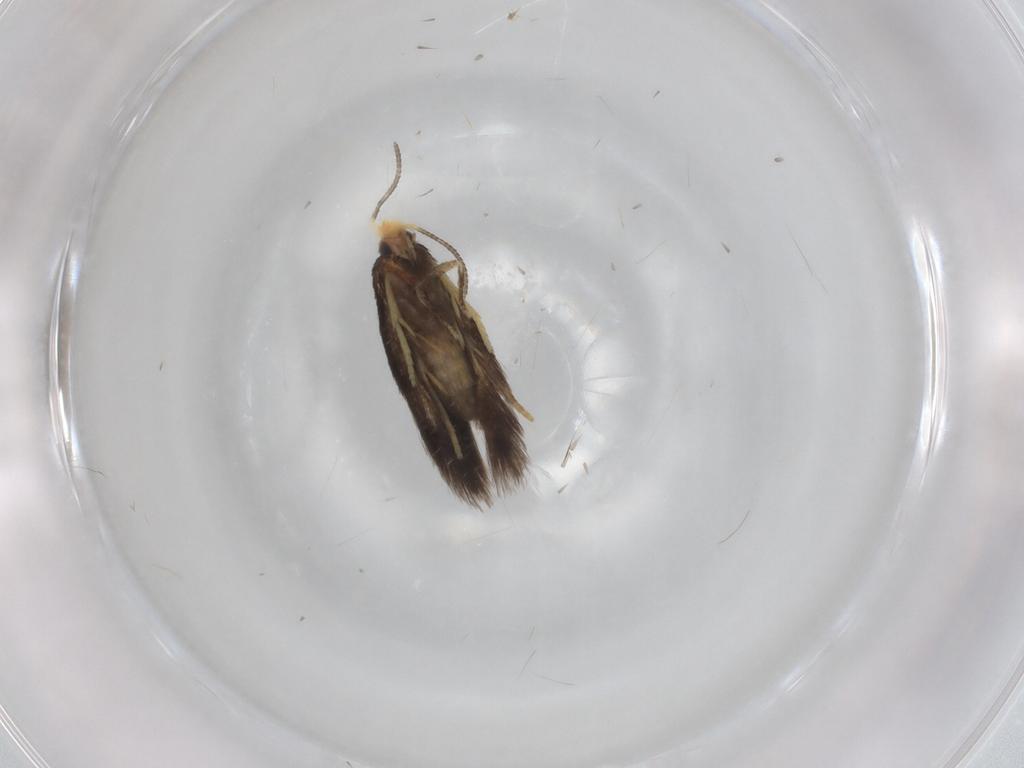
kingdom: Animalia
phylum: Arthropoda
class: Insecta
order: Lepidoptera
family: Nepticulidae
